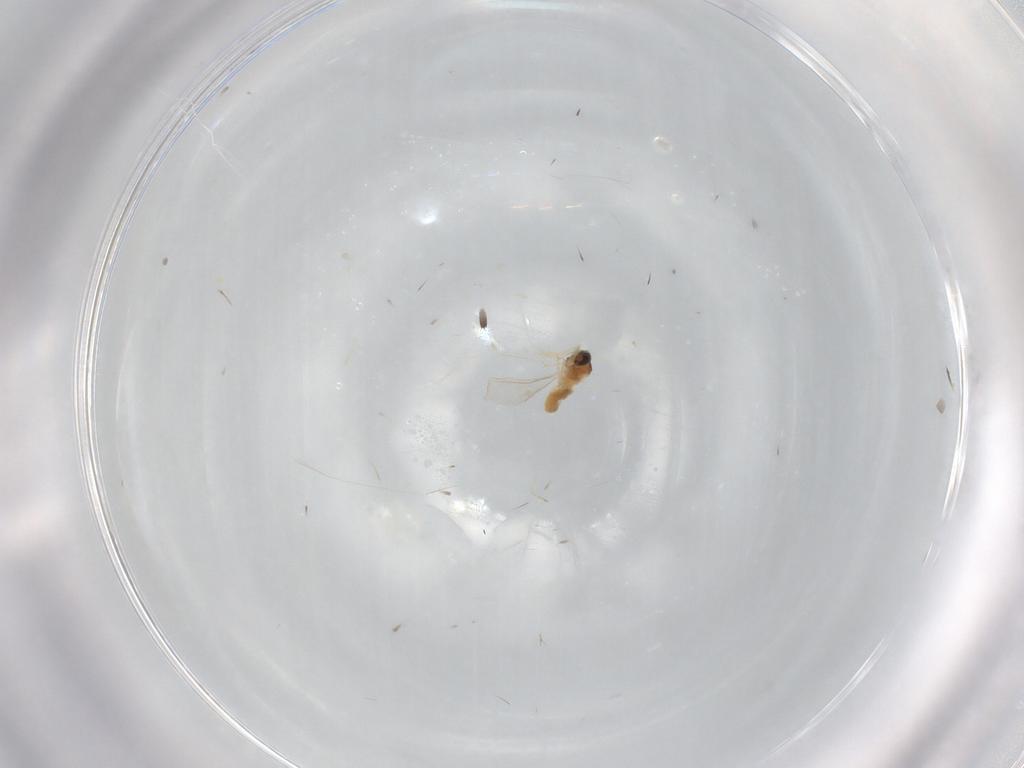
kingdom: Animalia
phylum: Arthropoda
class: Insecta
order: Diptera
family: Cecidomyiidae
